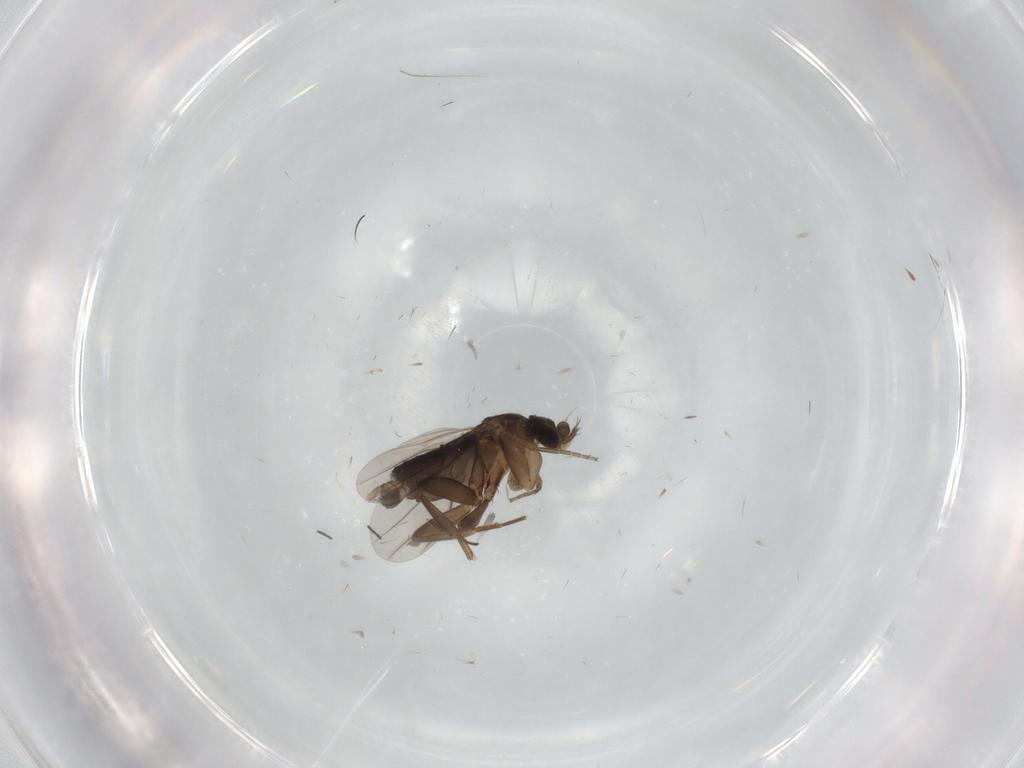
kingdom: Animalia
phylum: Arthropoda
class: Insecta
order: Diptera
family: Phoridae
